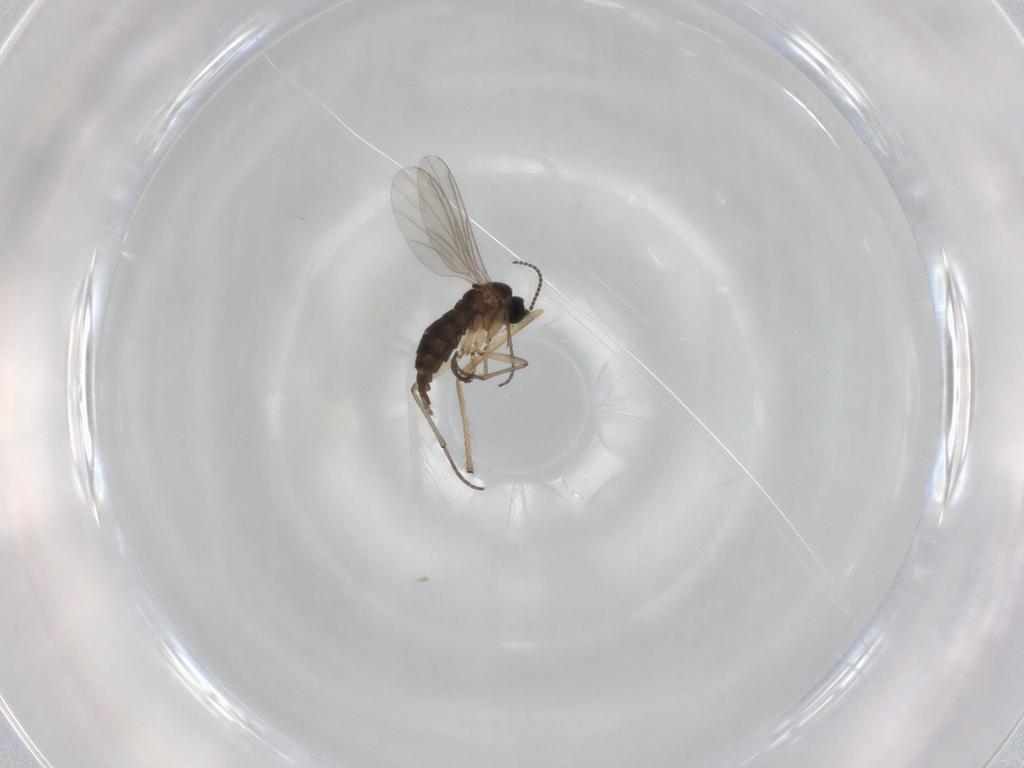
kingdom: Animalia
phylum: Arthropoda
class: Insecta
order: Diptera
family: Sciaridae
